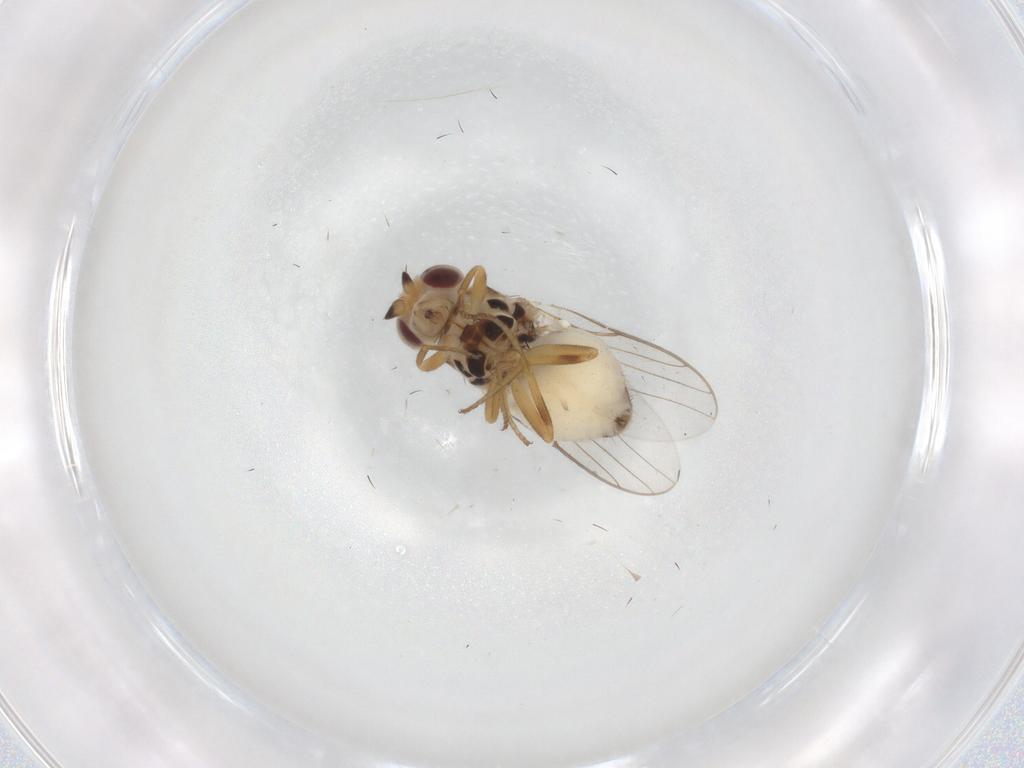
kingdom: Animalia
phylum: Arthropoda
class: Insecta
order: Diptera
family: Chloropidae
